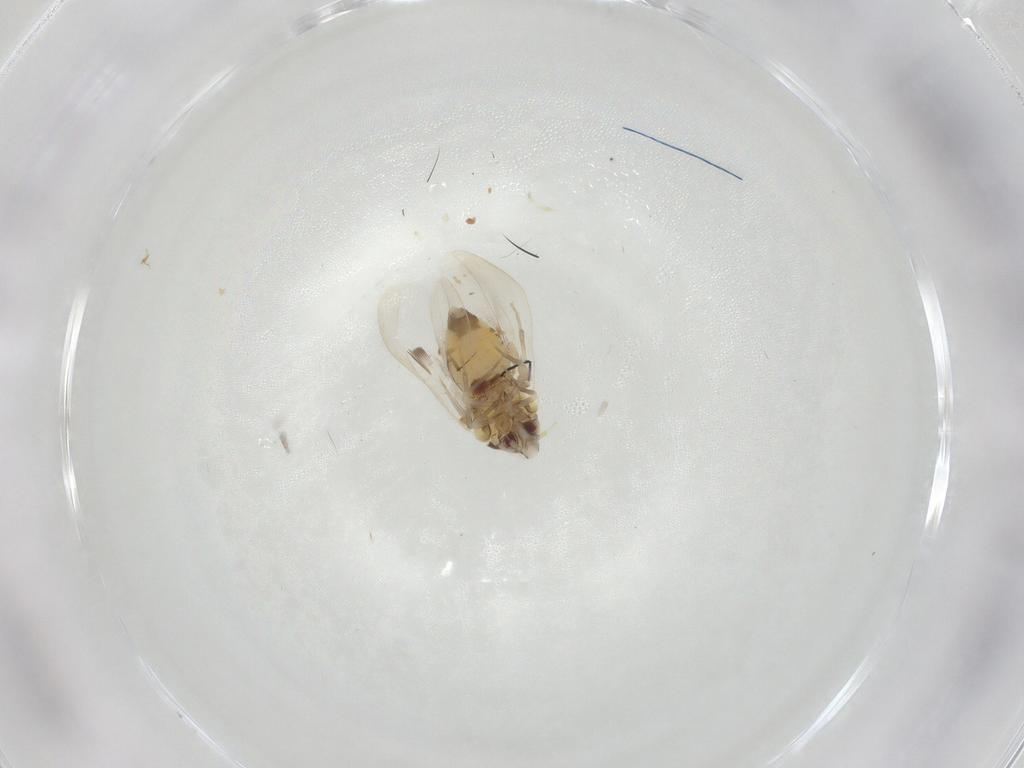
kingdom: Animalia
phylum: Arthropoda
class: Insecta
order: Hemiptera
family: Aleyrodidae
